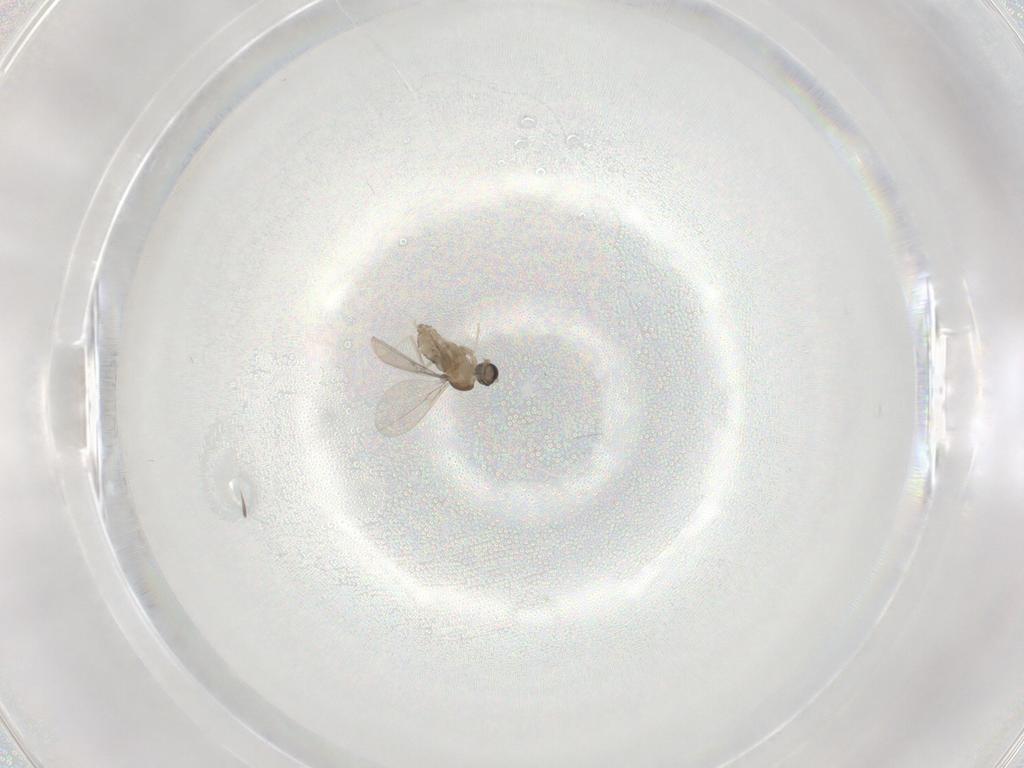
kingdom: Animalia
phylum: Arthropoda
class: Insecta
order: Diptera
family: Cecidomyiidae
